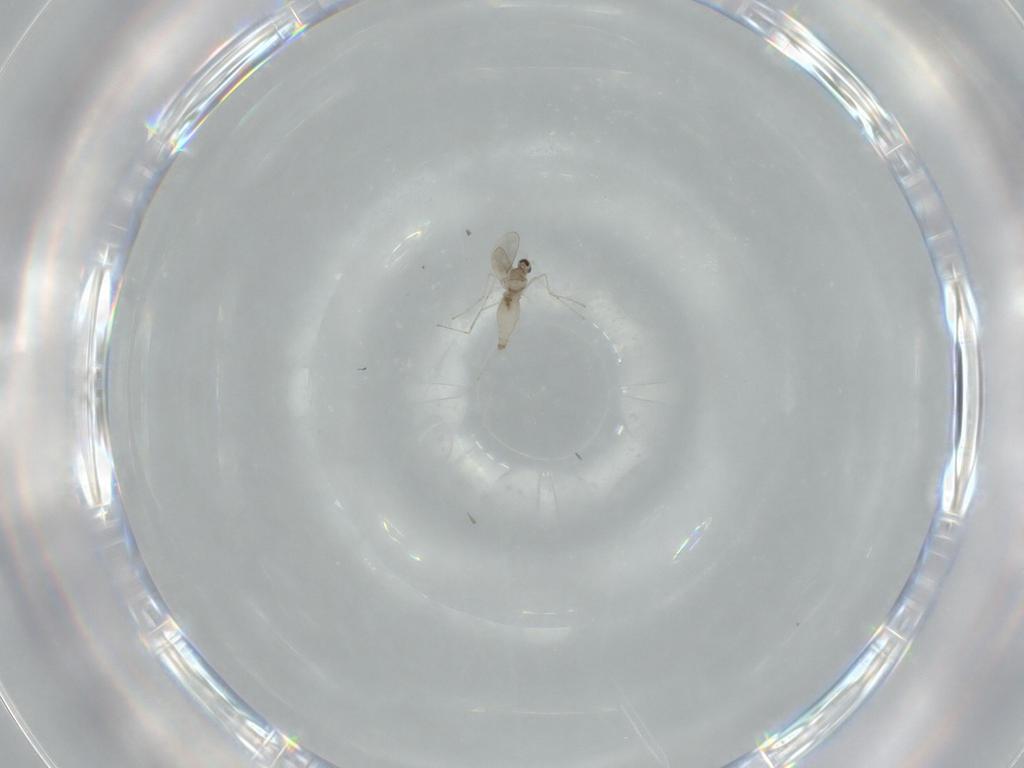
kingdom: Animalia
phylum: Arthropoda
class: Insecta
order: Diptera
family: Cecidomyiidae
